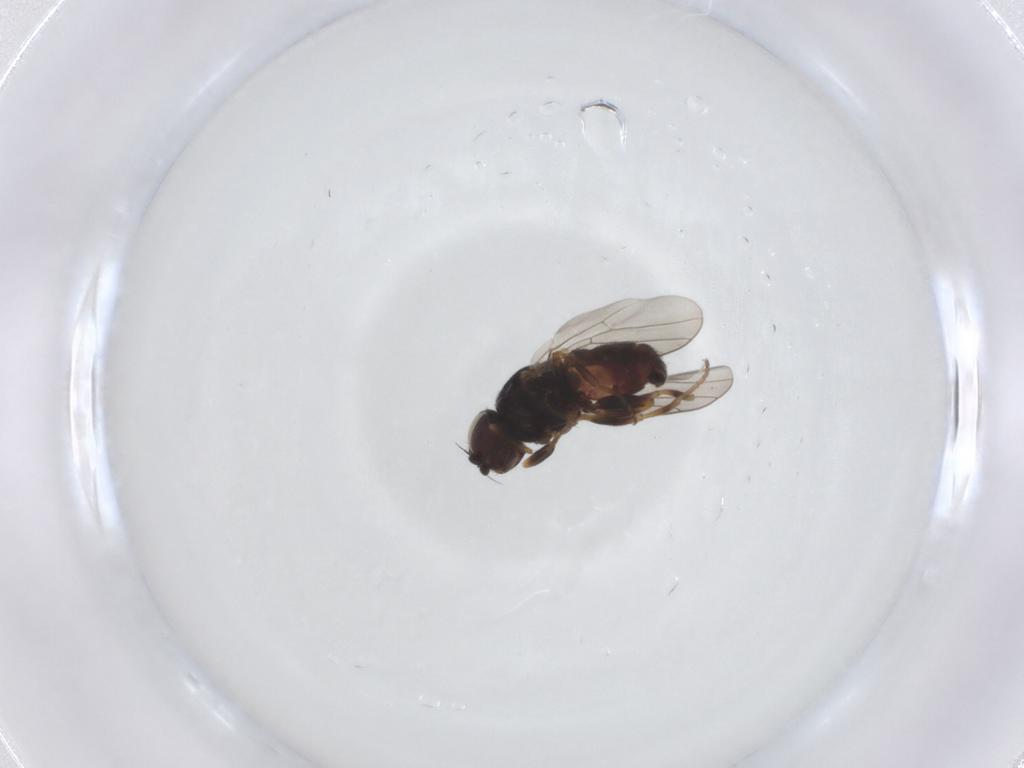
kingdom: Animalia
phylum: Arthropoda
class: Insecta
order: Diptera
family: Chloropidae
